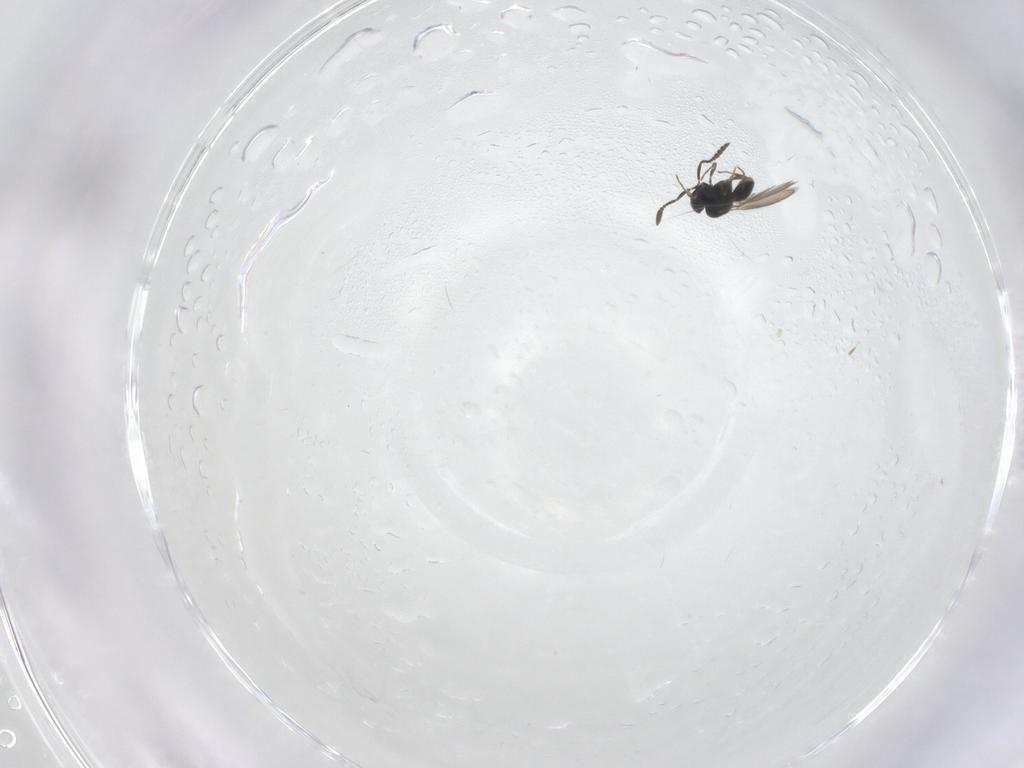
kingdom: Animalia
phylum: Arthropoda
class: Insecta
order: Hymenoptera
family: Scelionidae
